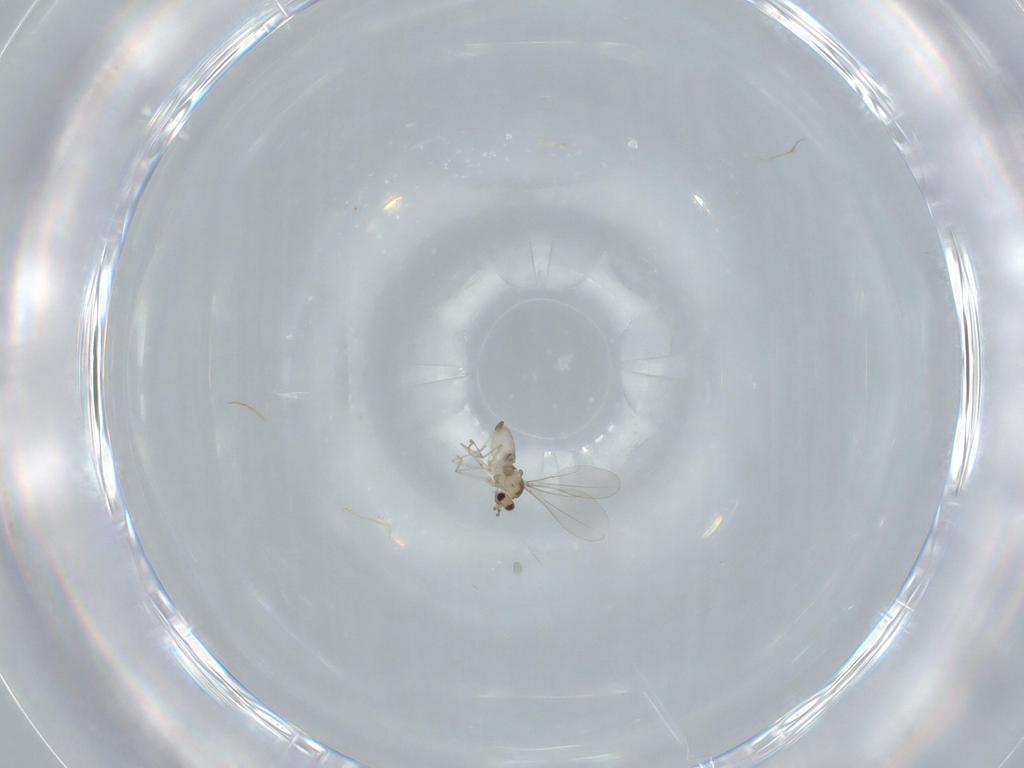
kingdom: Animalia
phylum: Arthropoda
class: Insecta
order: Diptera
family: Cecidomyiidae
